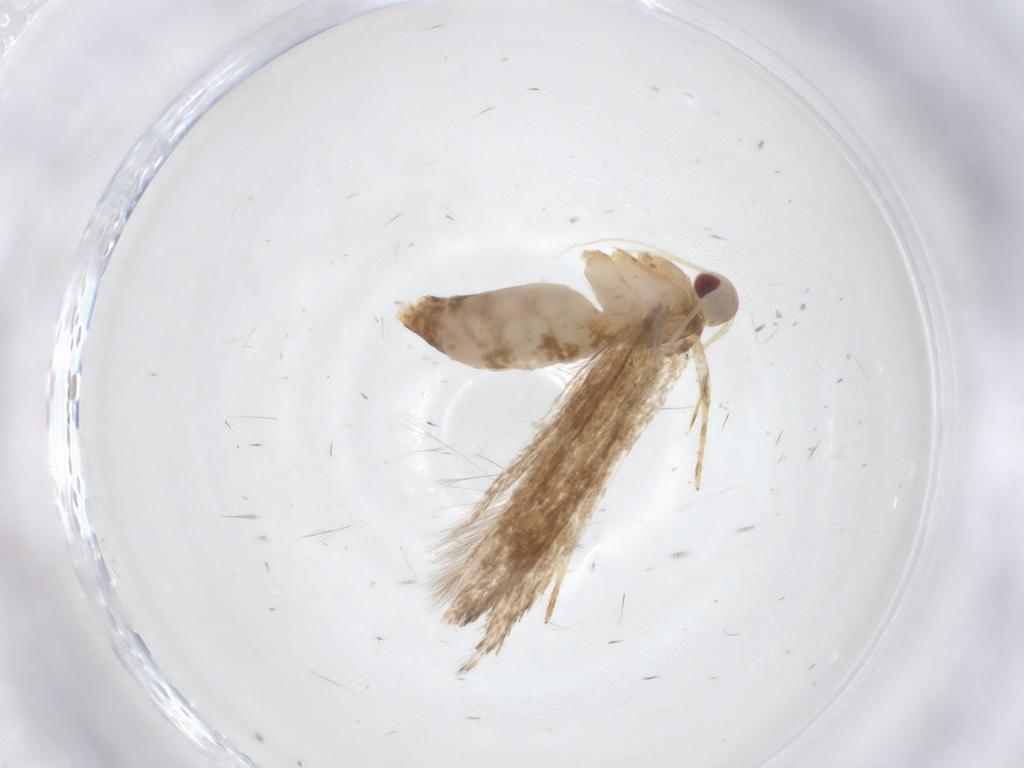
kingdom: Animalia
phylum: Arthropoda
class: Insecta
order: Lepidoptera
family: Cosmopterigidae
